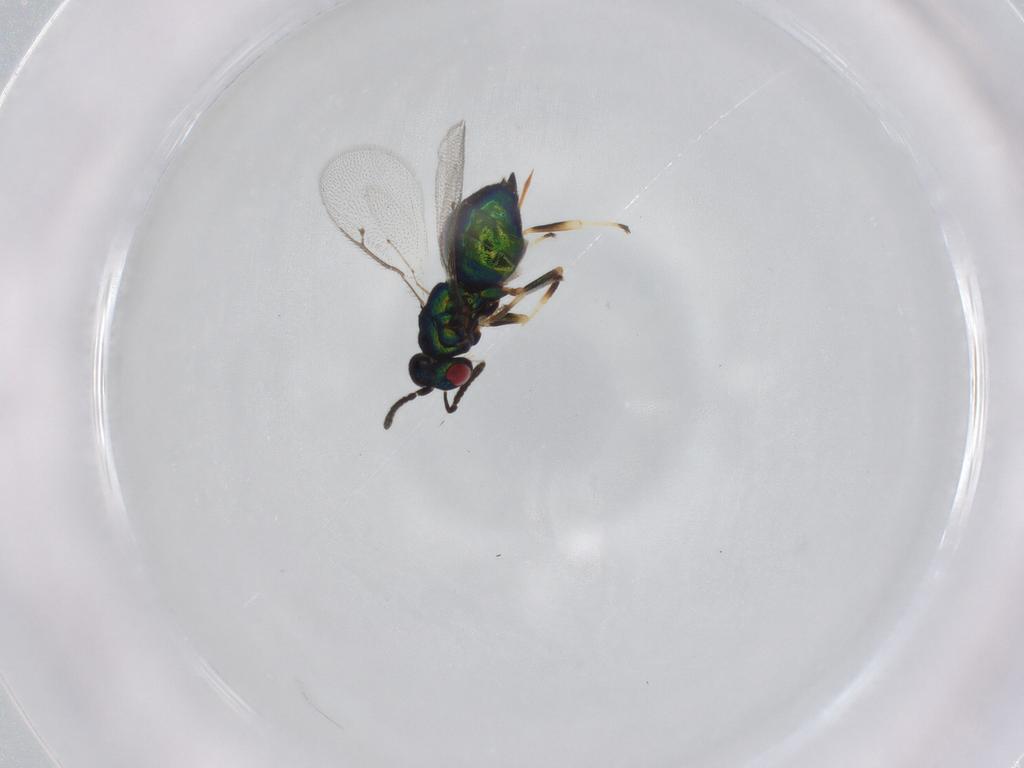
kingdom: Animalia
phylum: Arthropoda
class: Insecta
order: Hymenoptera
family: Pteromalidae
